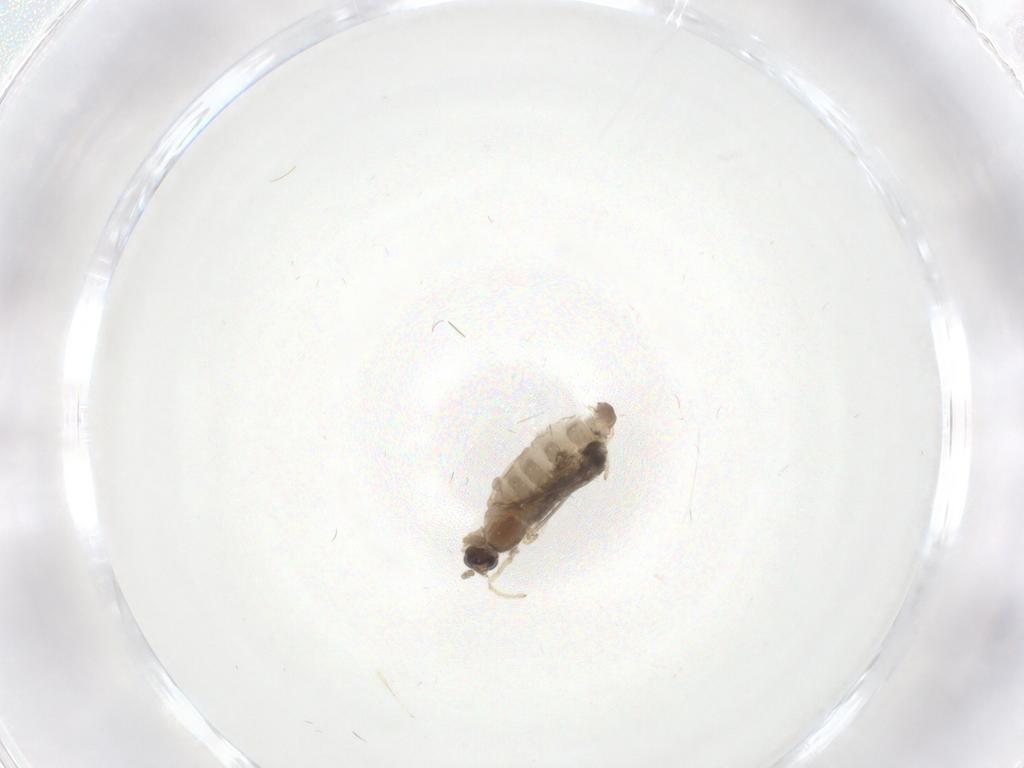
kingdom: Animalia
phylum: Arthropoda
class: Insecta
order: Diptera
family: Cecidomyiidae
